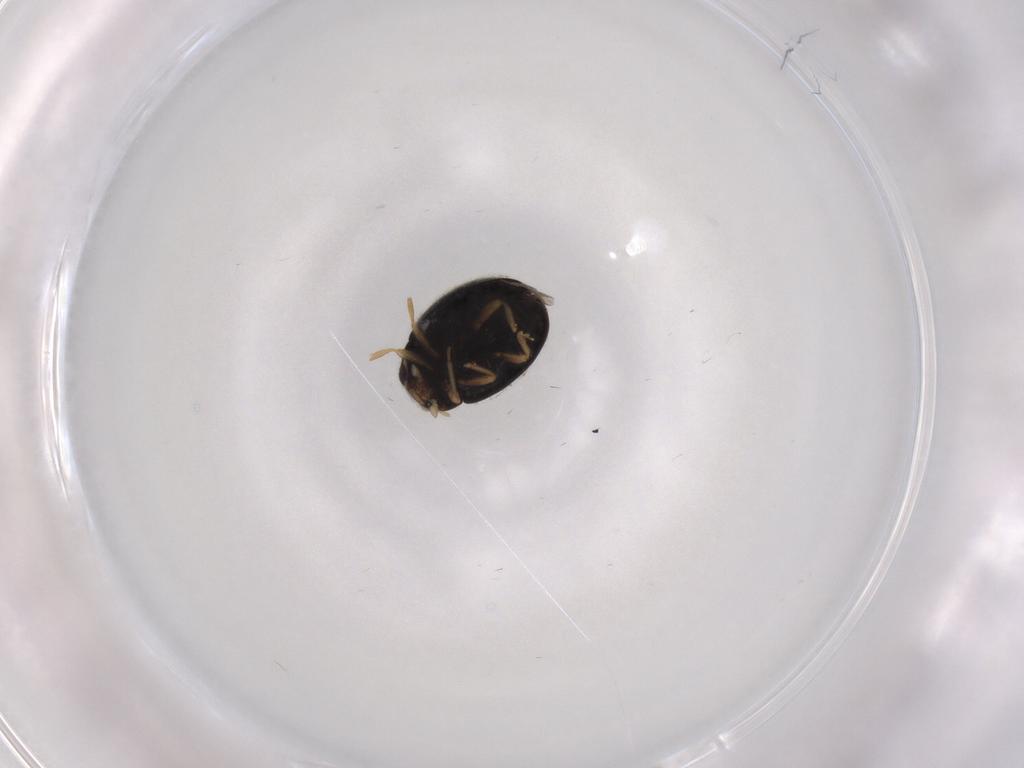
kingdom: Animalia
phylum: Arthropoda
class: Insecta
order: Coleoptera
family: Coccinellidae
